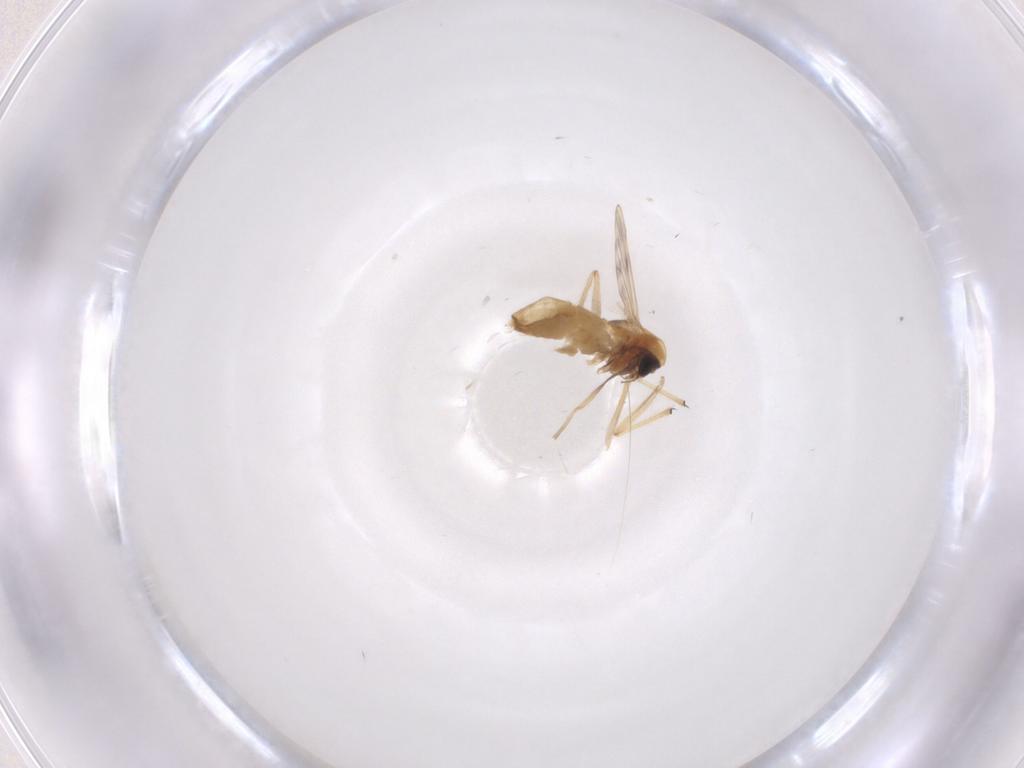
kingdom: Animalia
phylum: Arthropoda
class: Insecta
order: Diptera
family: Chironomidae
